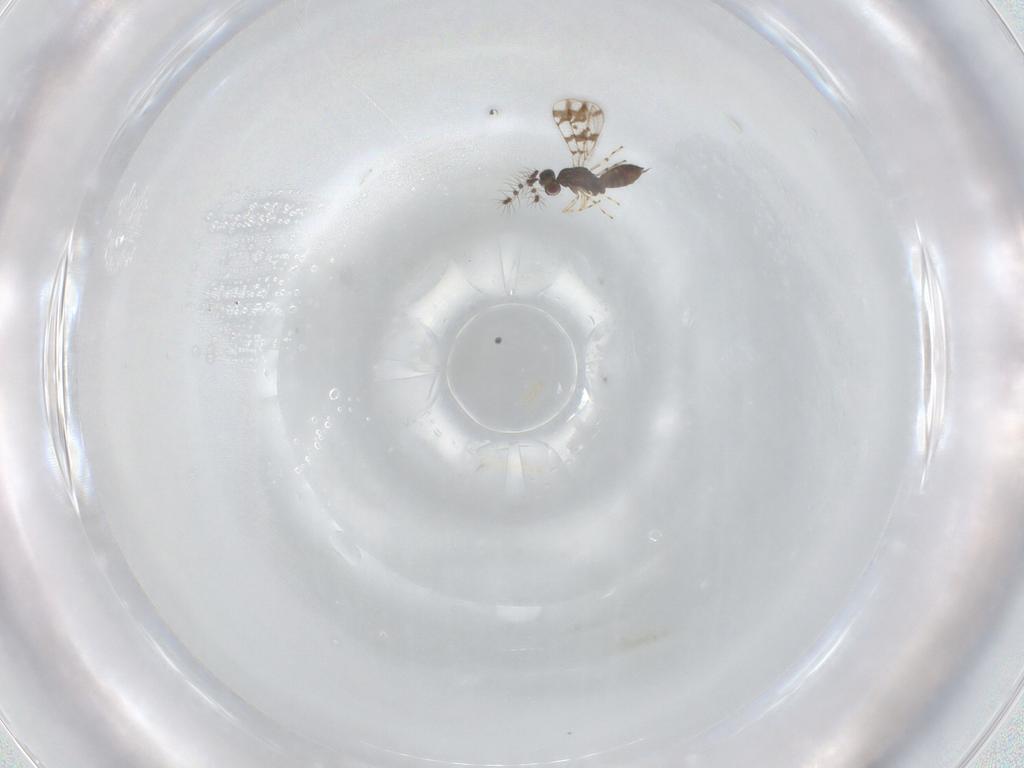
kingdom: Animalia
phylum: Arthropoda
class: Insecta
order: Hymenoptera
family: Eulophidae
